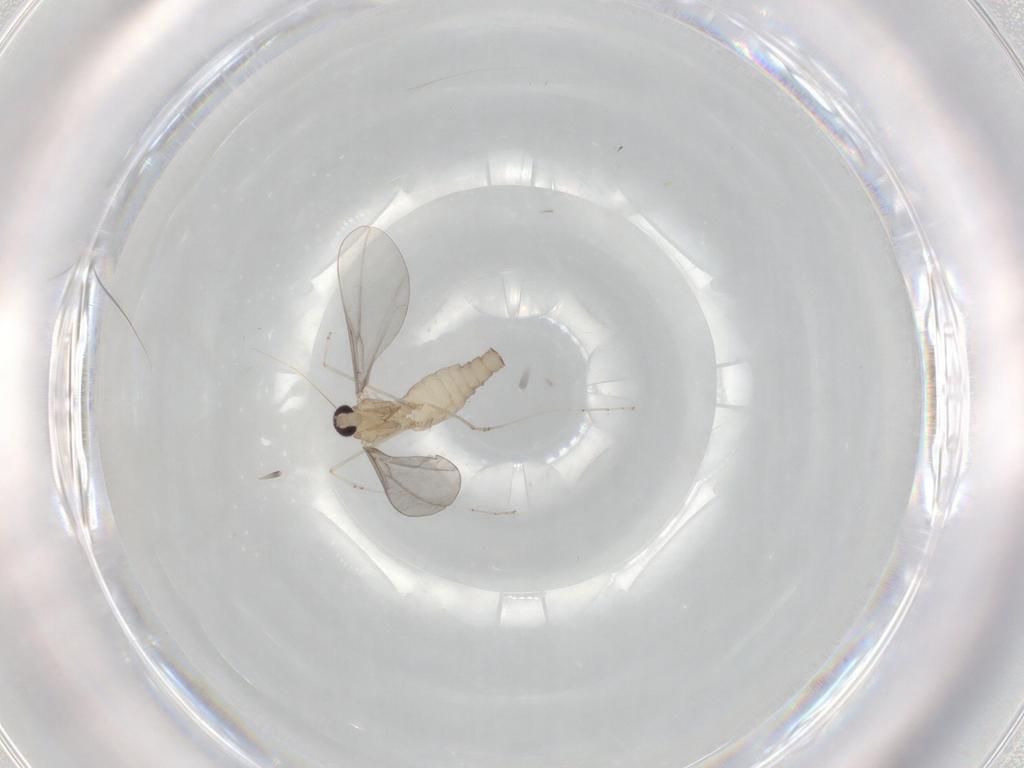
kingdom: Animalia
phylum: Arthropoda
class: Insecta
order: Diptera
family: Cecidomyiidae
